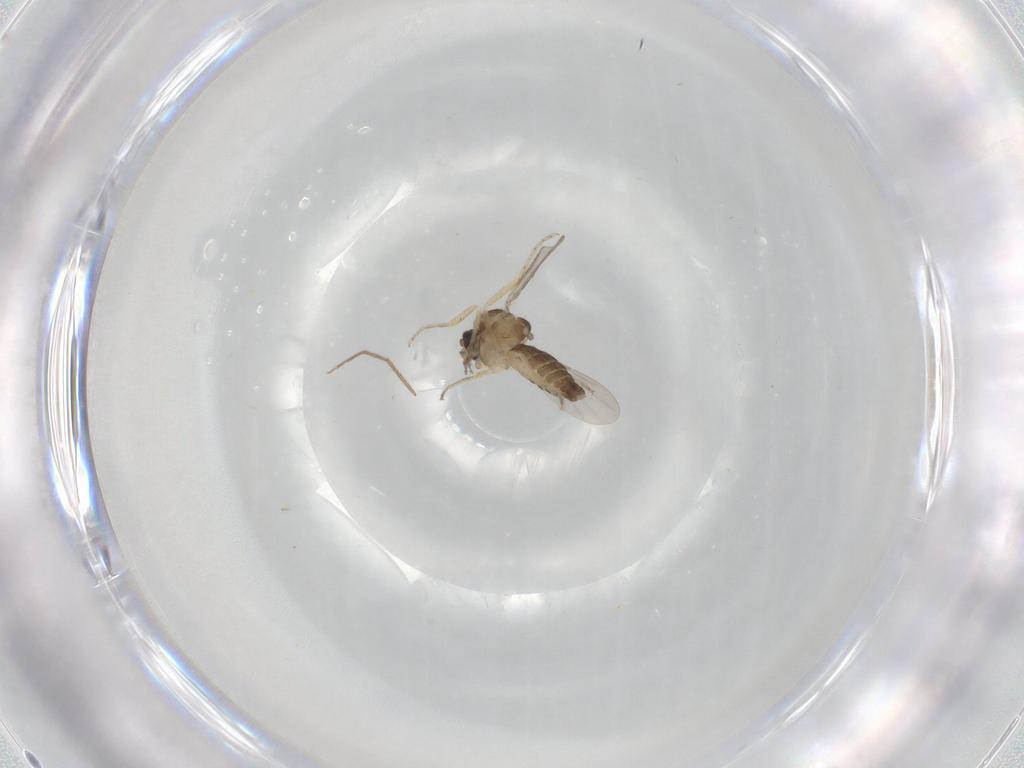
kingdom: Animalia
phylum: Arthropoda
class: Insecta
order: Diptera
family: Ceratopogonidae
